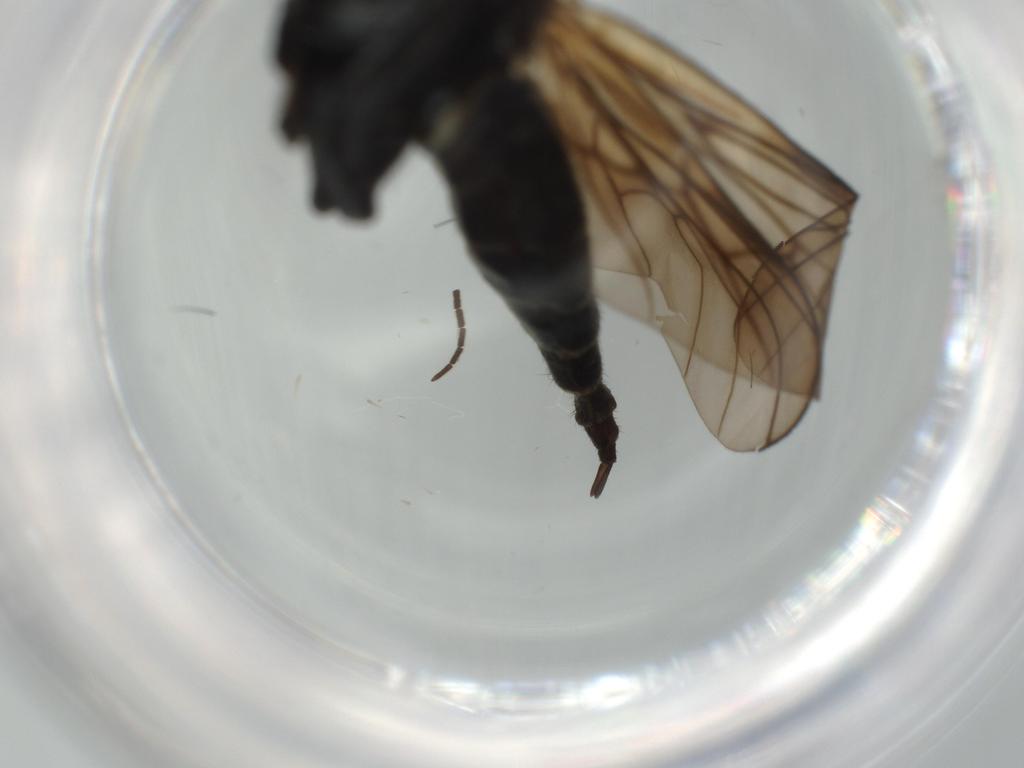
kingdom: Animalia
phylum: Arthropoda
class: Insecta
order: Diptera
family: Empididae
